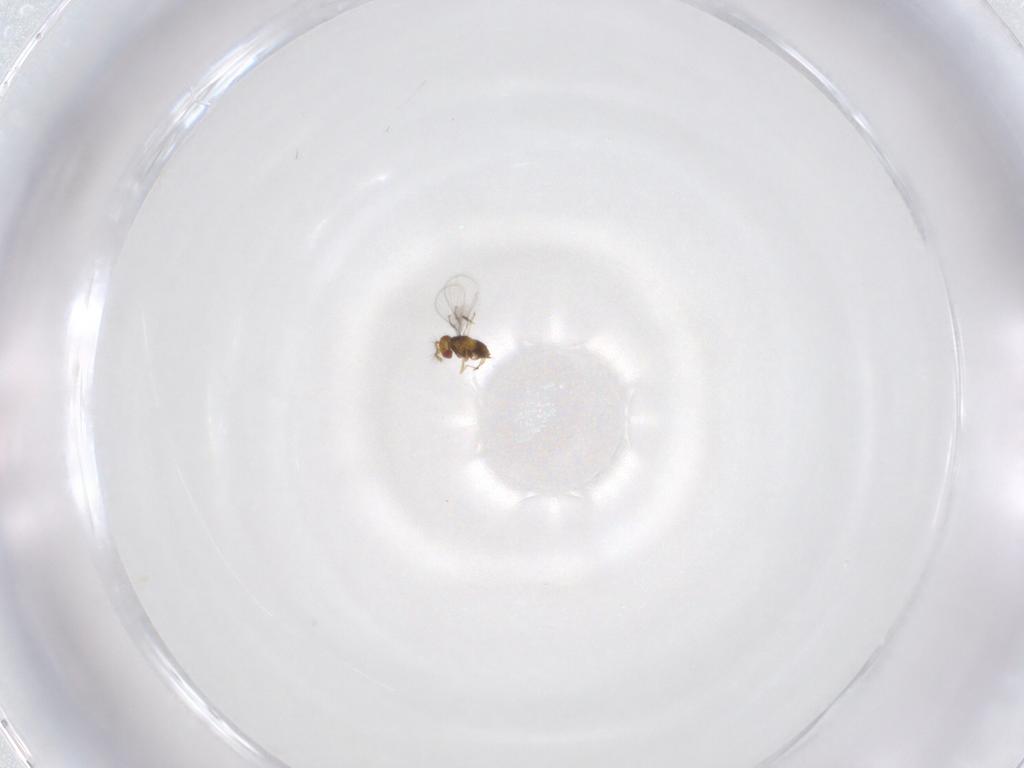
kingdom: Animalia
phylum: Arthropoda
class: Insecta
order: Hymenoptera
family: Trichogrammatidae
